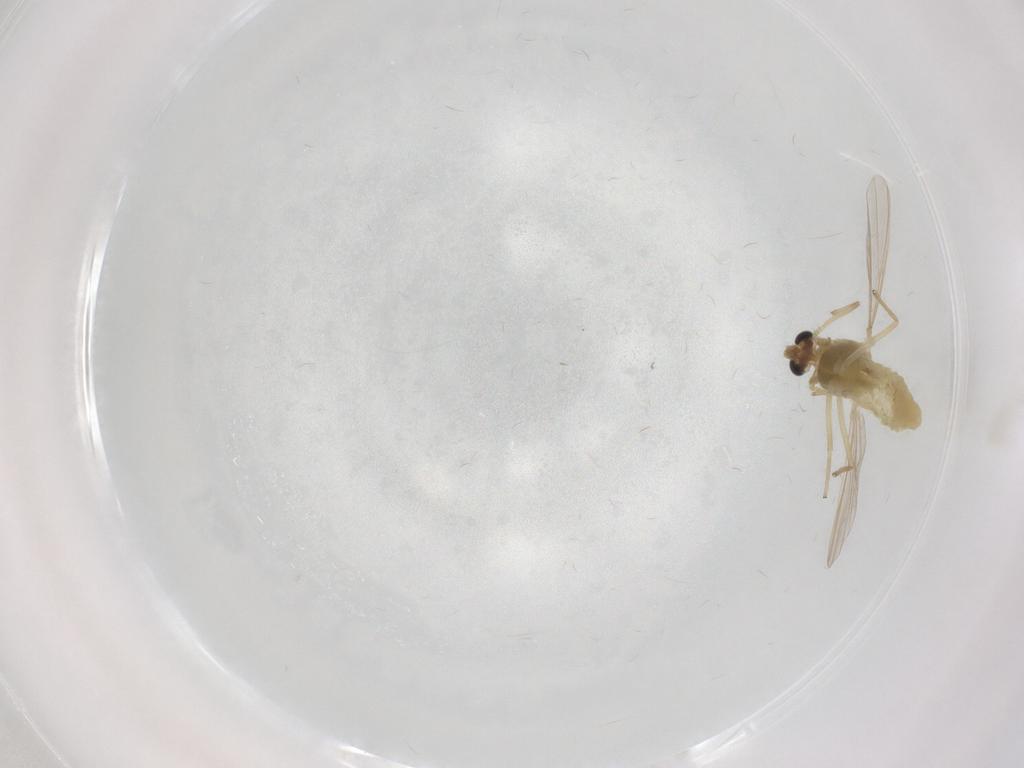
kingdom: Animalia
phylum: Arthropoda
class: Insecta
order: Diptera
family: Chironomidae
